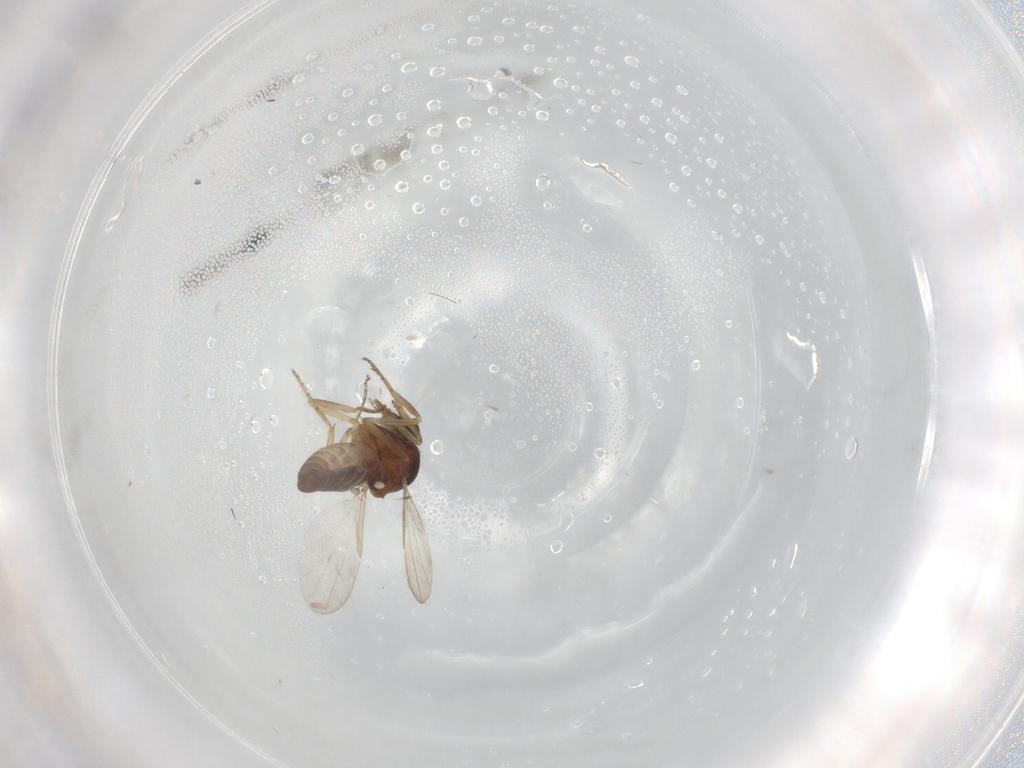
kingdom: Animalia
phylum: Arthropoda
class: Insecta
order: Diptera
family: Ceratopogonidae
